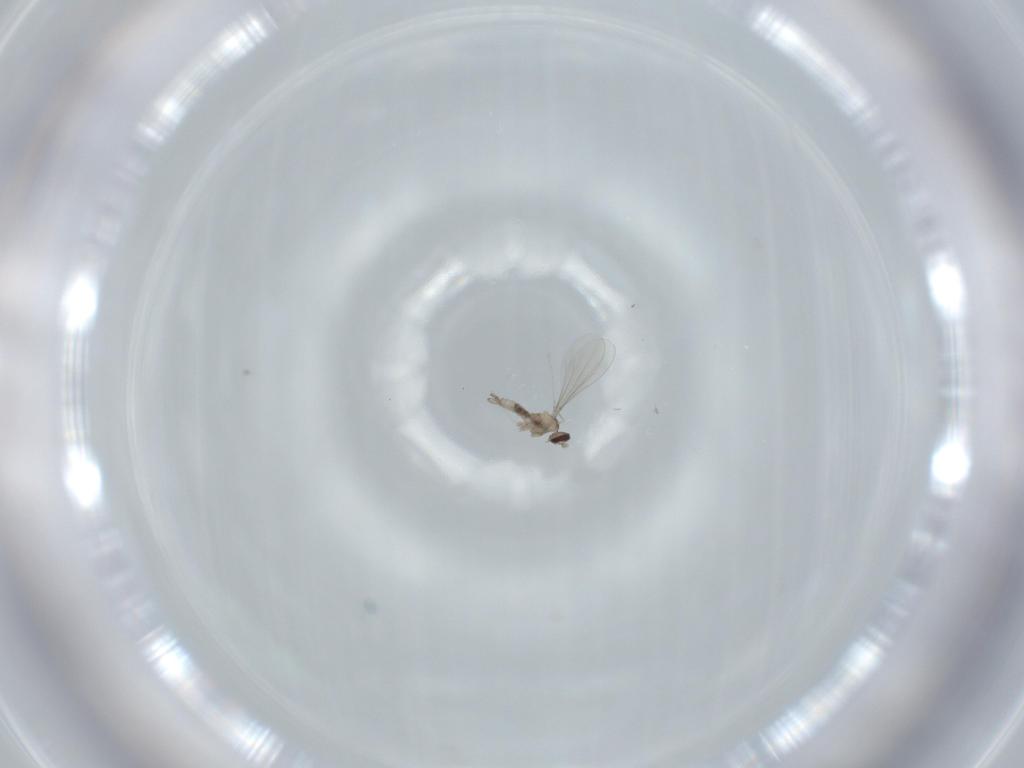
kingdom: Animalia
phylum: Arthropoda
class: Insecta
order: Diptera
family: Cecidomyiidae
